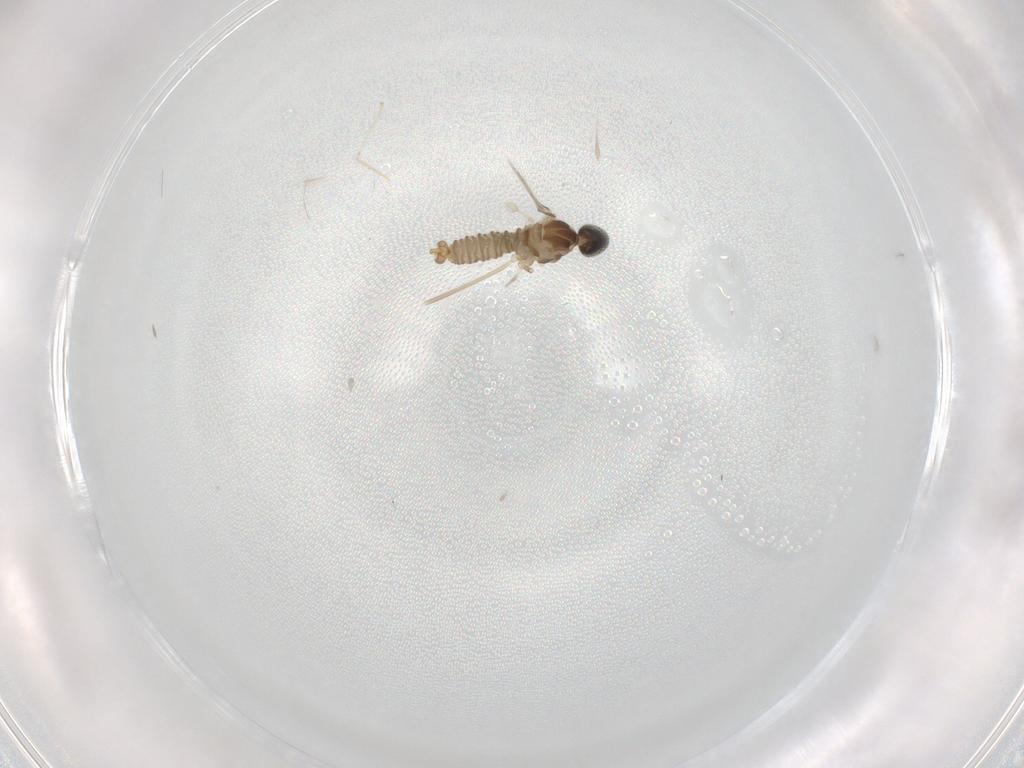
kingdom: Animalia
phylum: Arthropoda
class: Insecta
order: Diptera
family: Cecidomyiidae
